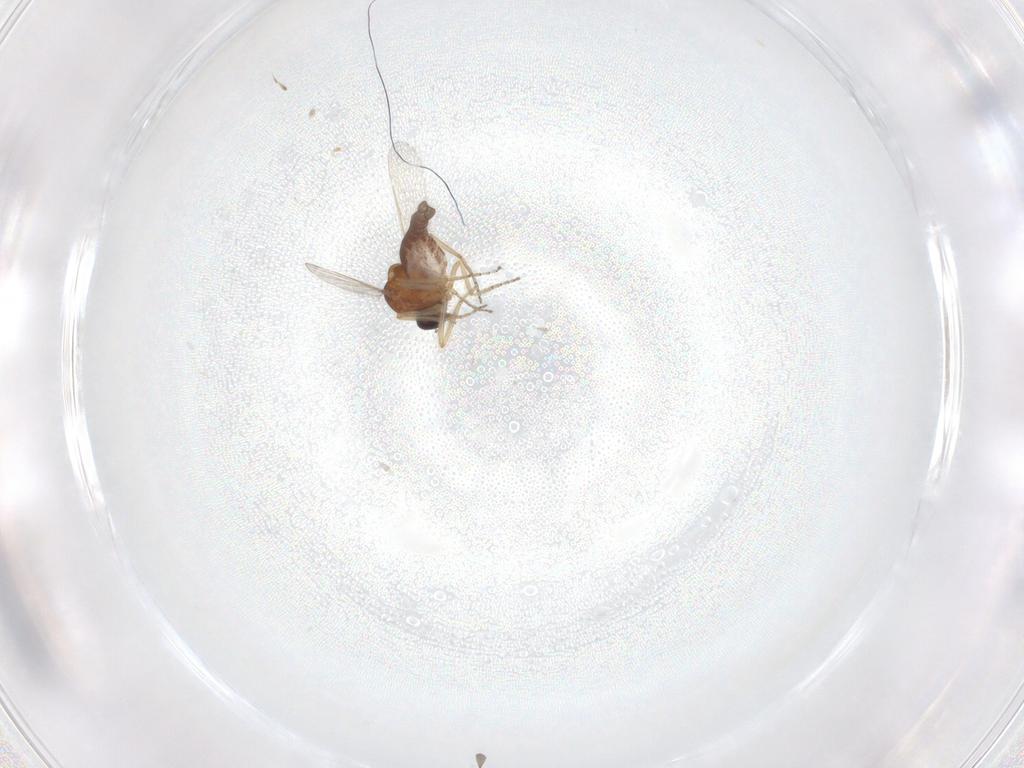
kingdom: Animalia
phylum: Arthropoda
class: Insecta
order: Diptera
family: Ceratopogonidae
